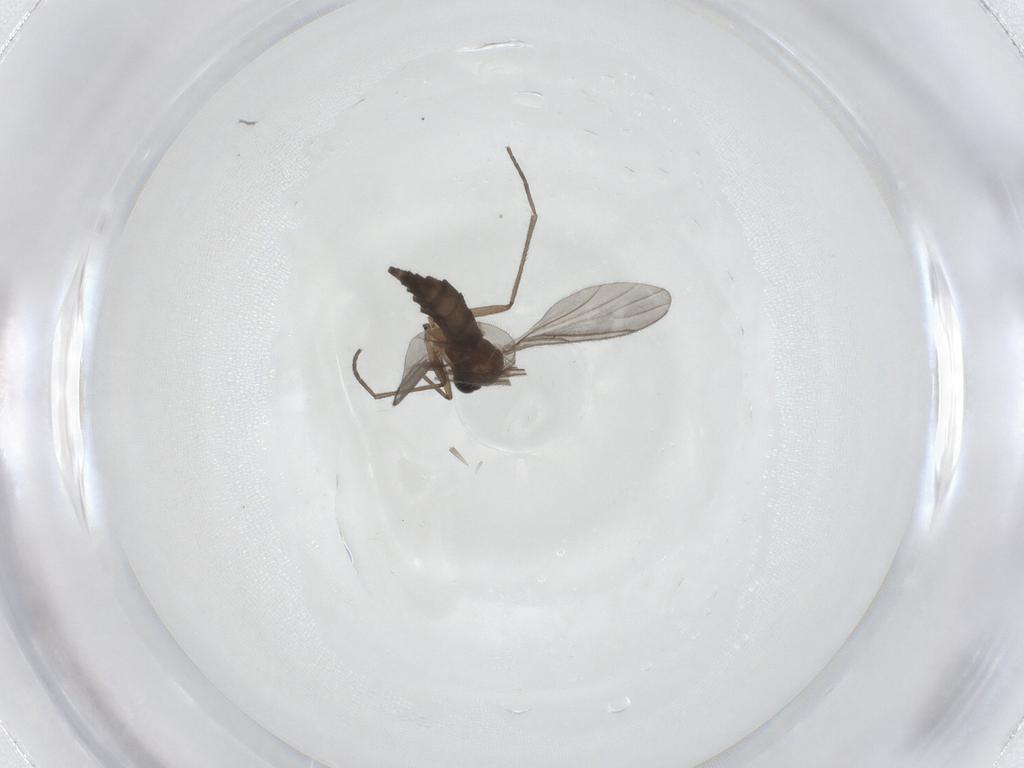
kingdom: Animalia
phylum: Arthropoda
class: Insecta
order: Diptera
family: Sciaridae
